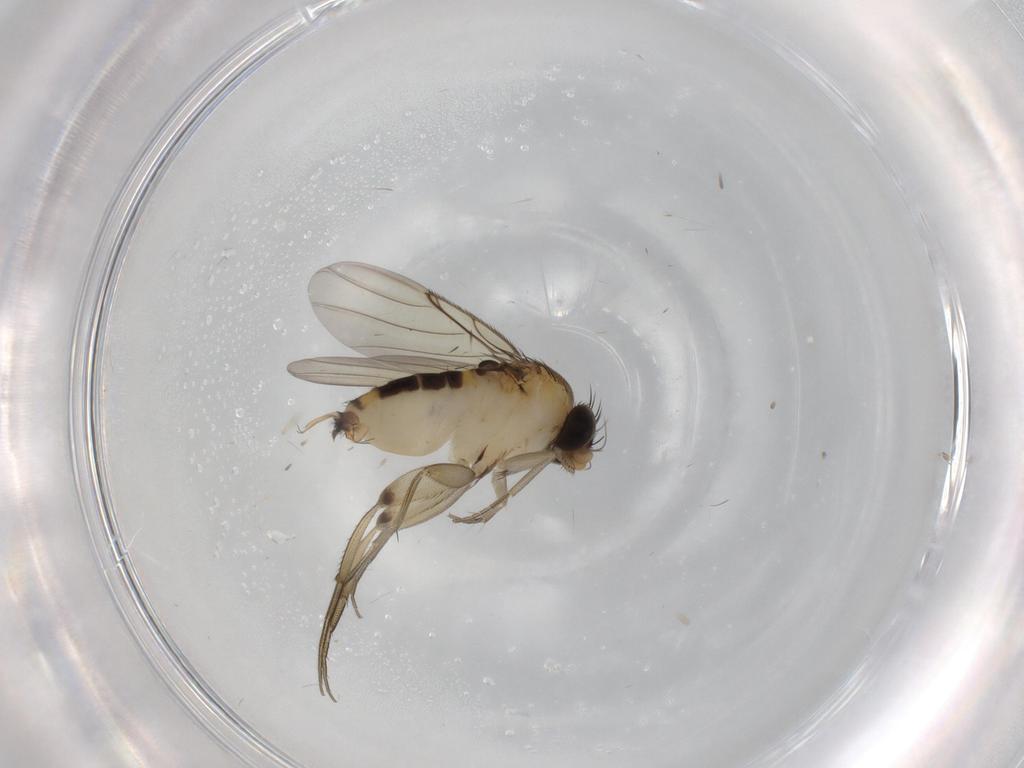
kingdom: Animalia
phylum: Arthropoda
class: Insecta
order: Diptera
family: Phoridae
